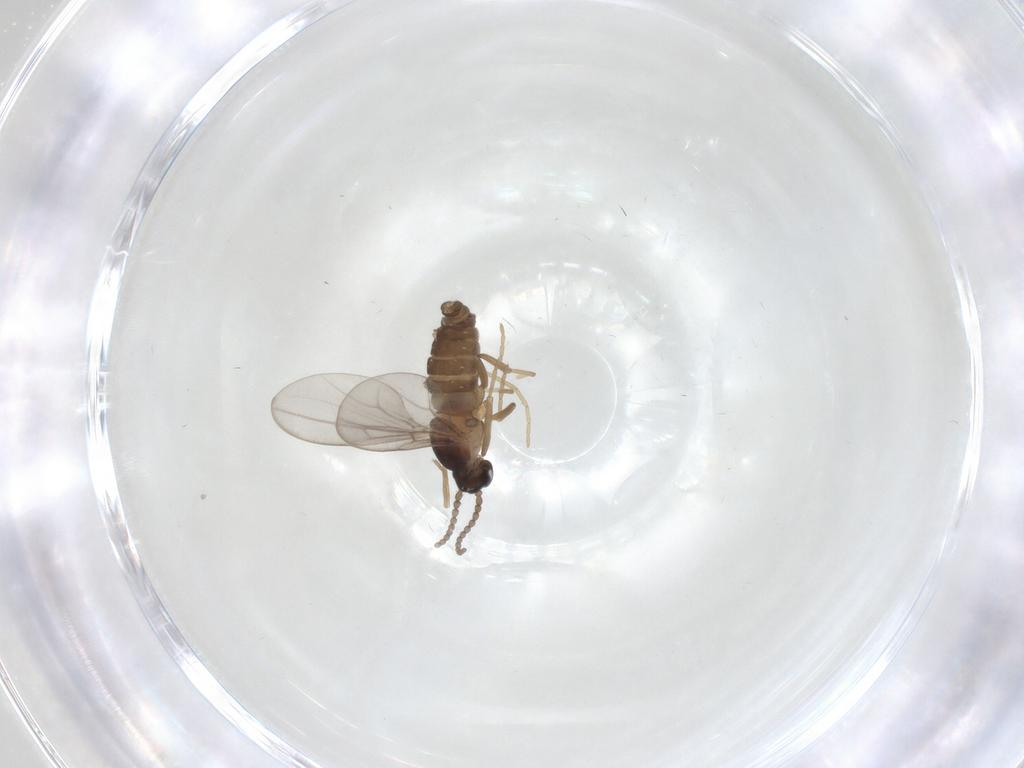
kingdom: Animalia
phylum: Arthropoda
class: Insecta
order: Diptera
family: Cecidomyiidae
